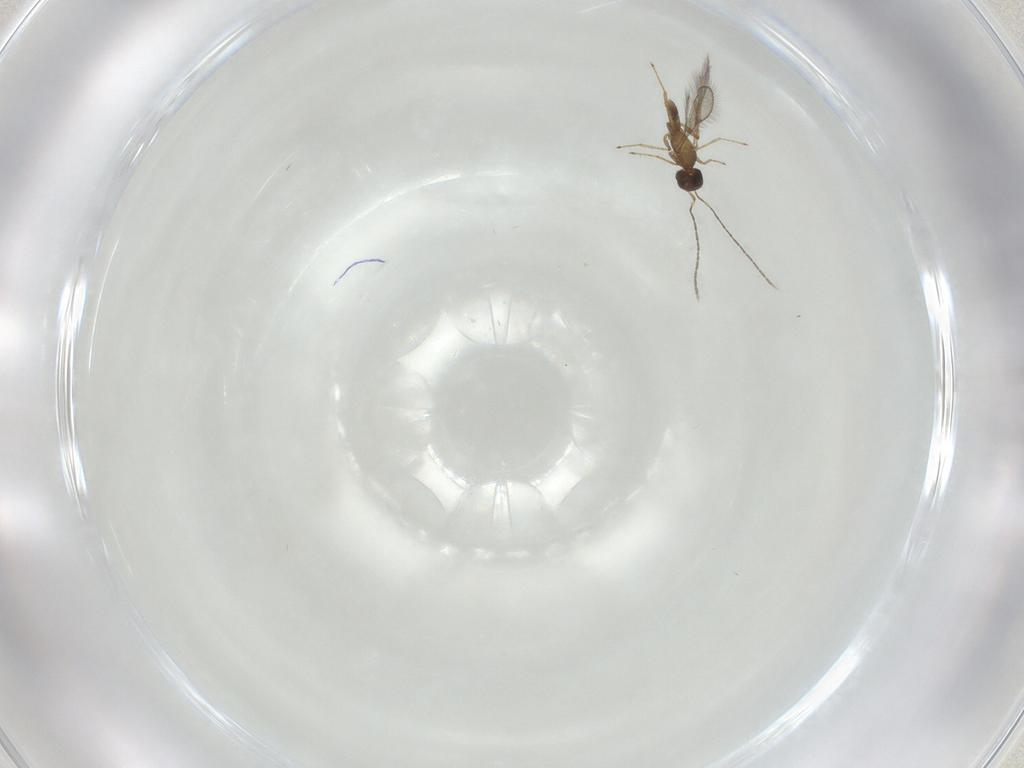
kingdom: Animalia
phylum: Arthropoda
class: Insecta
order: Hymenoptera
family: Mymaridae
